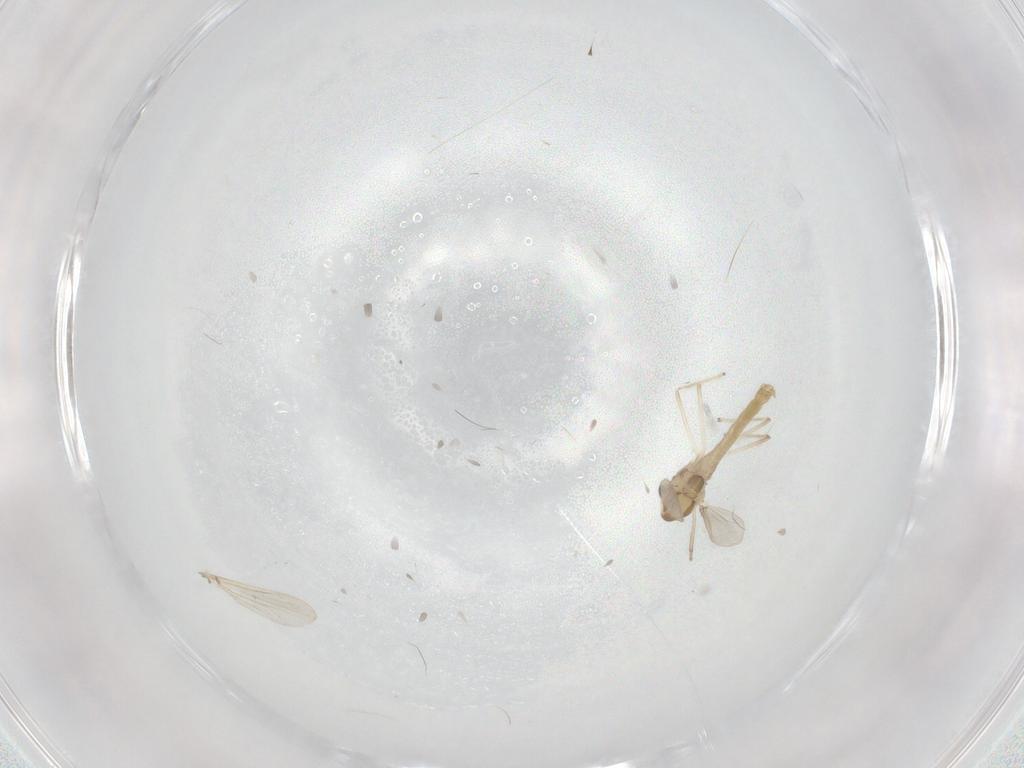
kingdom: Animalia
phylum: Arthropoda
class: Insecta
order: Diptera
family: Chironomidae
